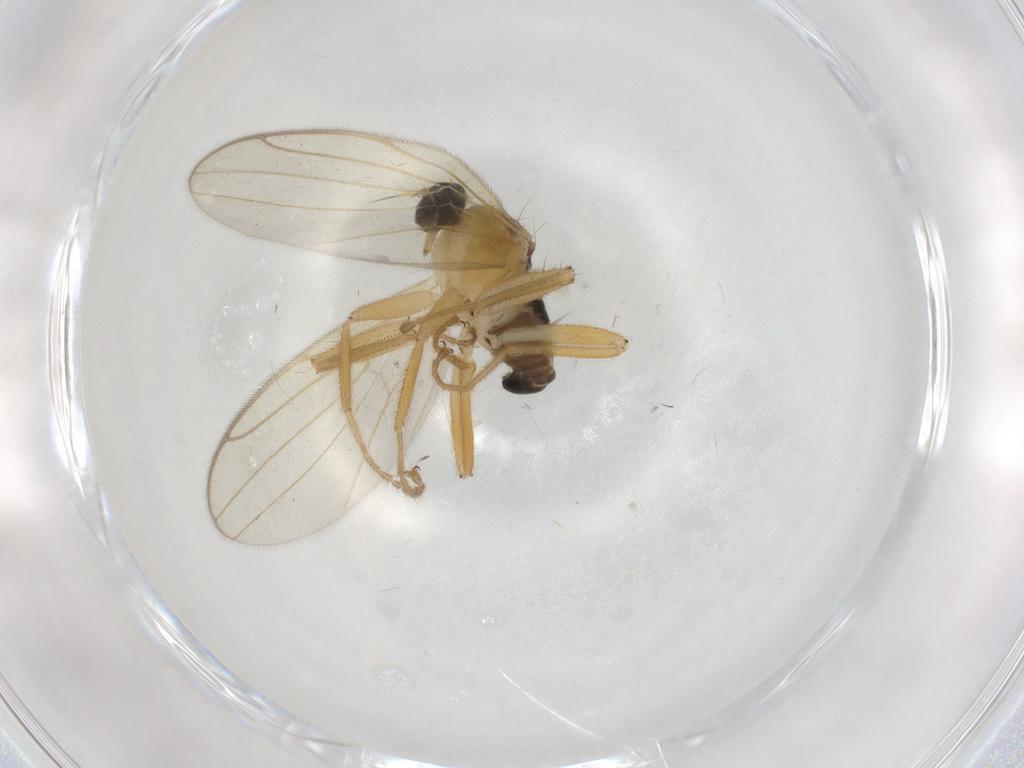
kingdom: Animalia
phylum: Arthropoda
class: Insecta
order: Diptera
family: Hybotidae
